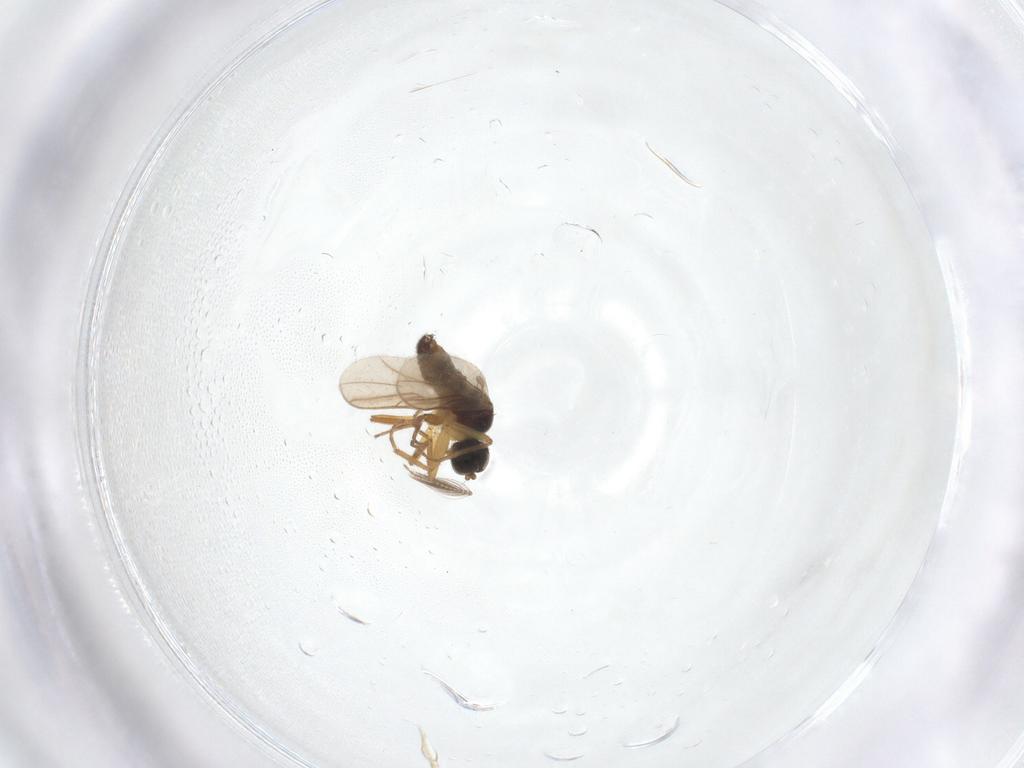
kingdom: Animalia
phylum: Arthropoda
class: Insecta
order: Diptera
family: Hybotidae
